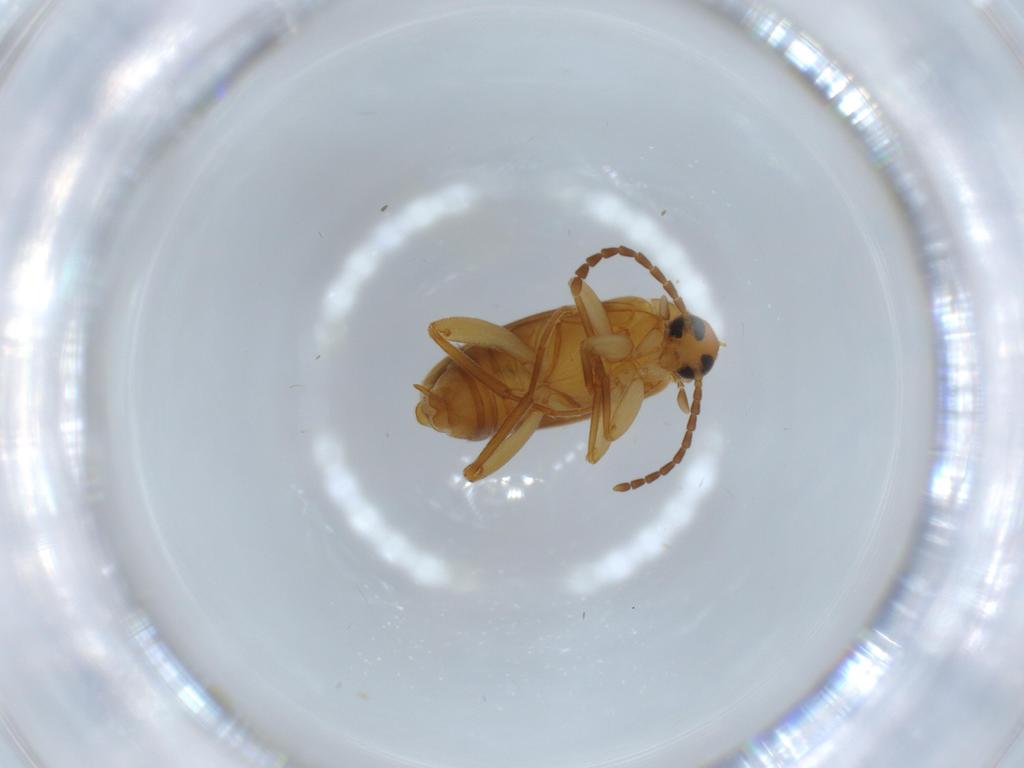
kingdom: Animalia
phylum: Arthropoda
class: Insecta
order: Coleoptera
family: Scraptiidae
